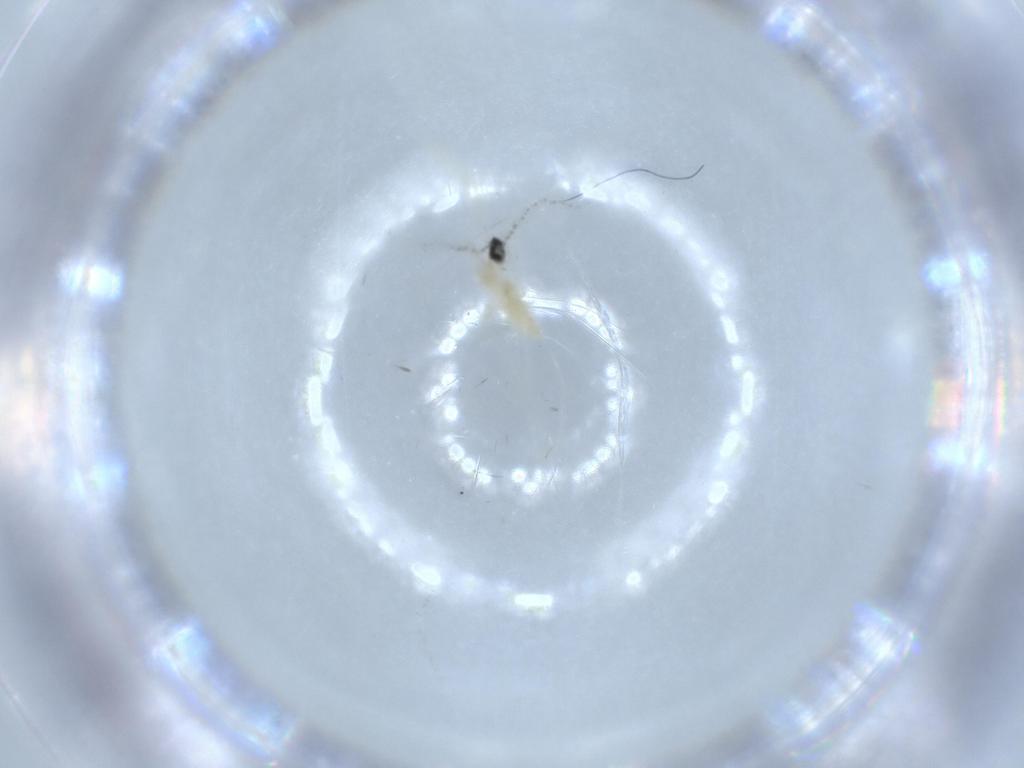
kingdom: Animalia
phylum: Arthropoda
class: Insecta
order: Diptera
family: Cecidomyiidae
